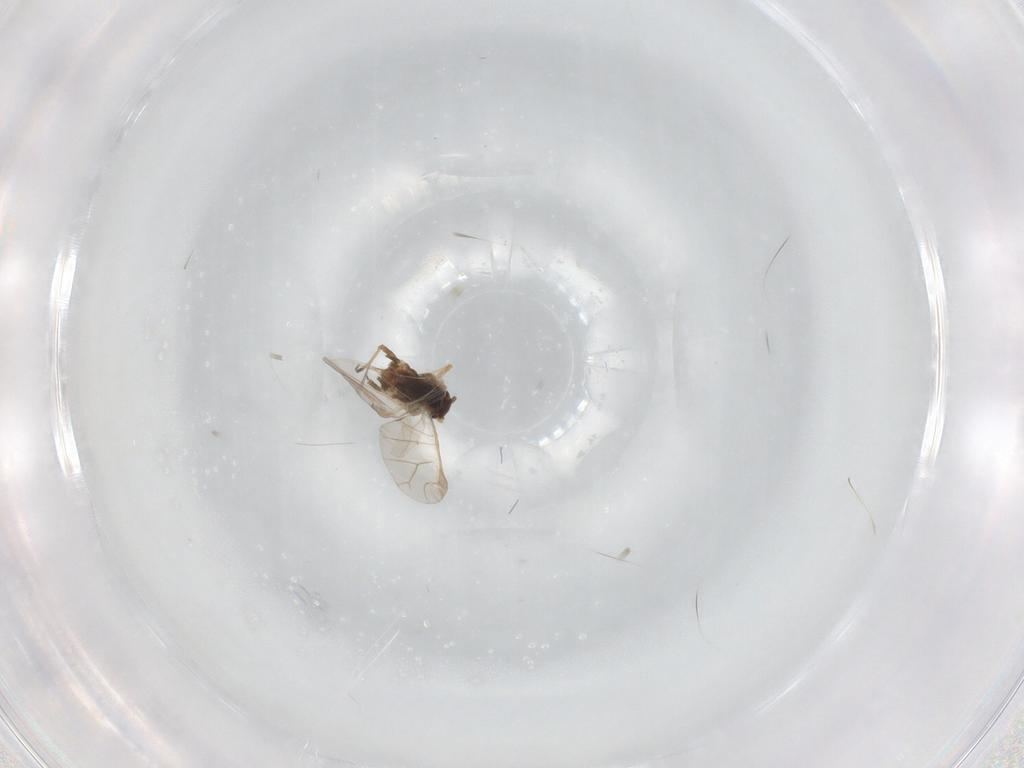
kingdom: Animalia
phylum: Arthropoda
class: Insecta
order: Hemiptera
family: Aphididae
